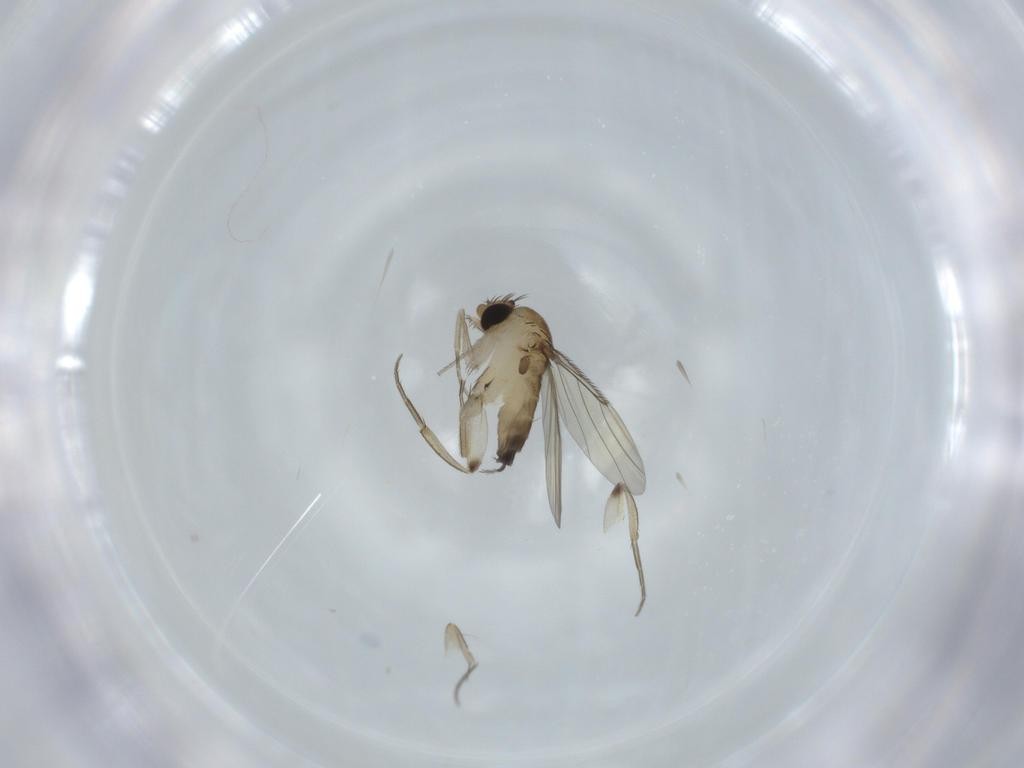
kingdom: Animalia
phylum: Arthropoda
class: Insecta
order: Diptera
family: Phoridae
